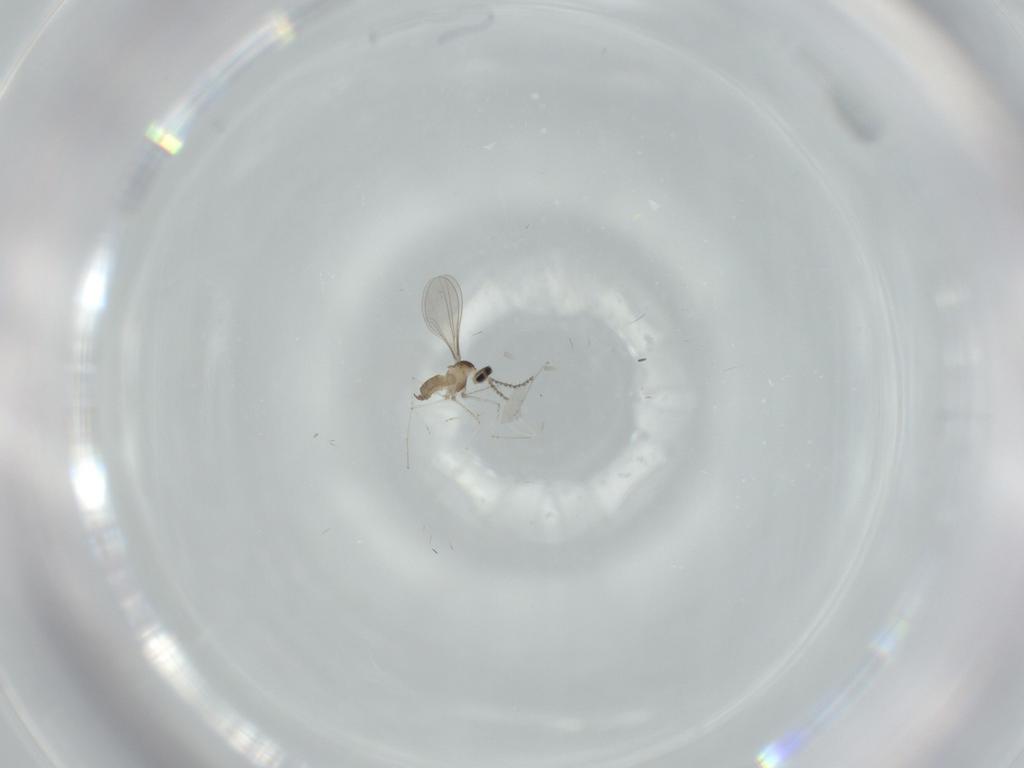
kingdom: Animalia
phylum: Arthropoda
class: Insecta
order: Diptera
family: Cecidomyiidae
